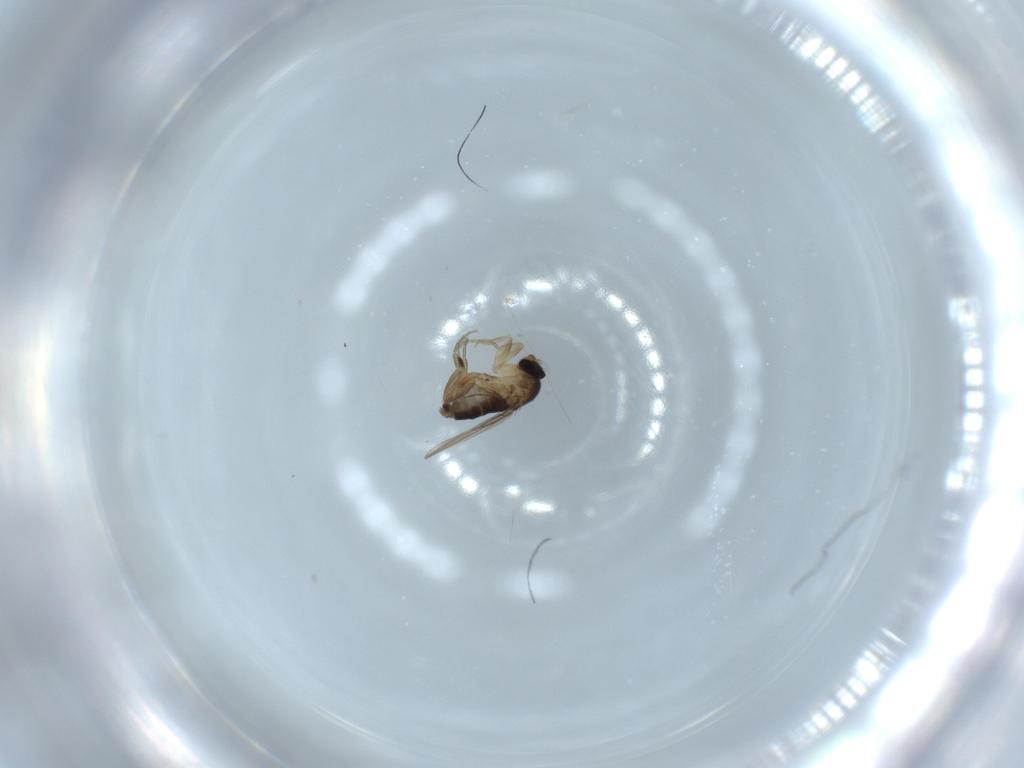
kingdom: Animalia
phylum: Arthropoda
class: Insecta
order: Diptera
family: Phoridae
